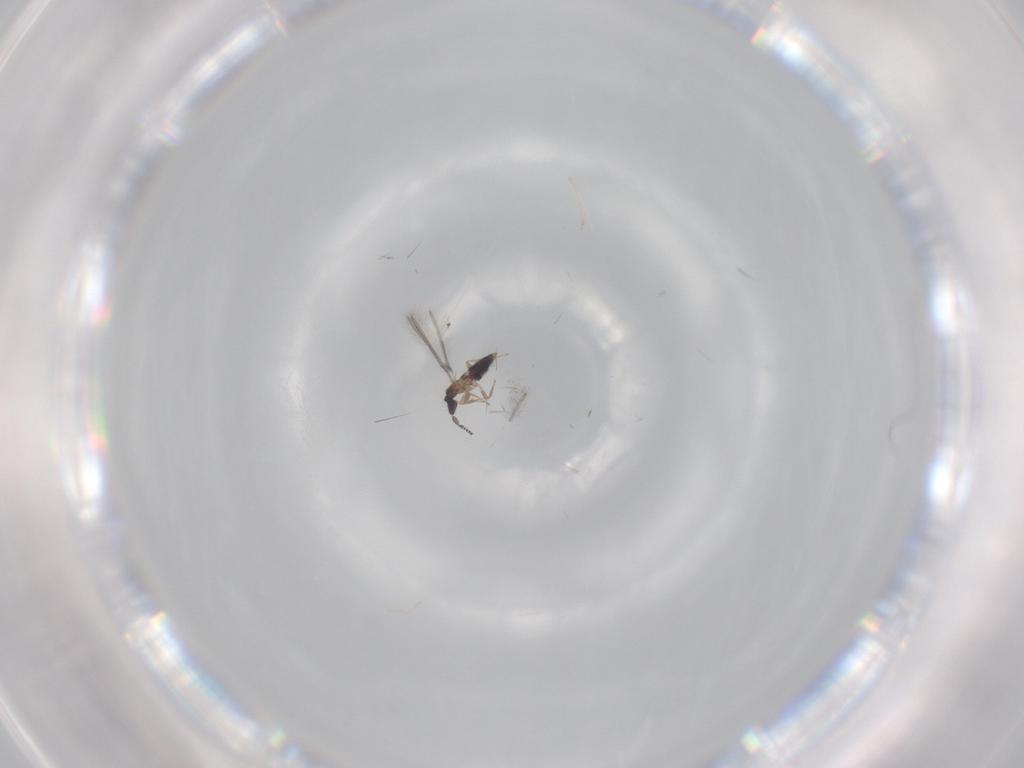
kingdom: Animalia
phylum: Arthropoda
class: Insecta
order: Hymenoptera
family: Mymaridae
